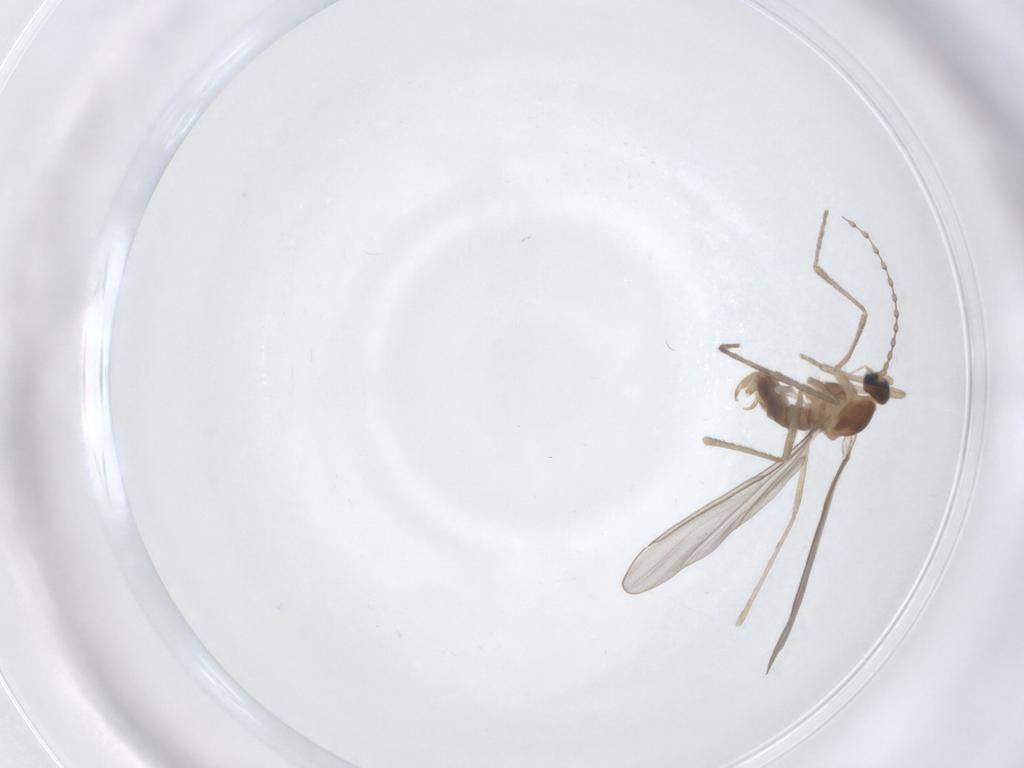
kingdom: Animalia
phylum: Arthropoda
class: Insecta
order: Diptera
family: Cecidomyiidae
